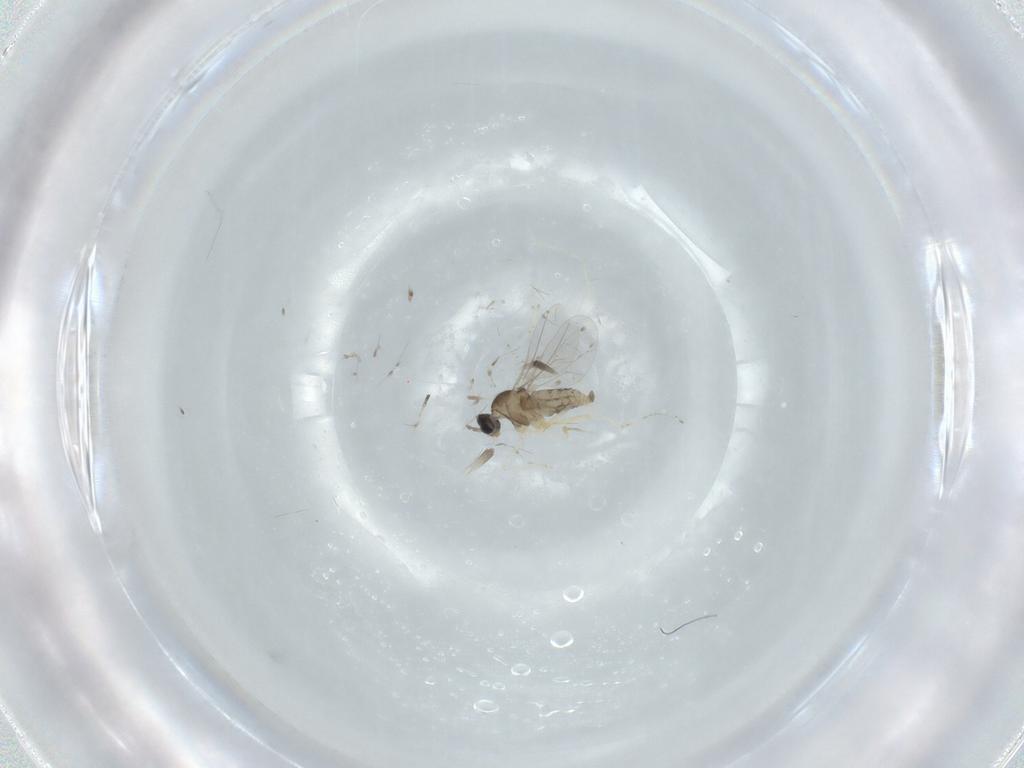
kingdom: Animalia
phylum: Arthropoda
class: Insecta
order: Diptera
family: Cecidomyiidae
